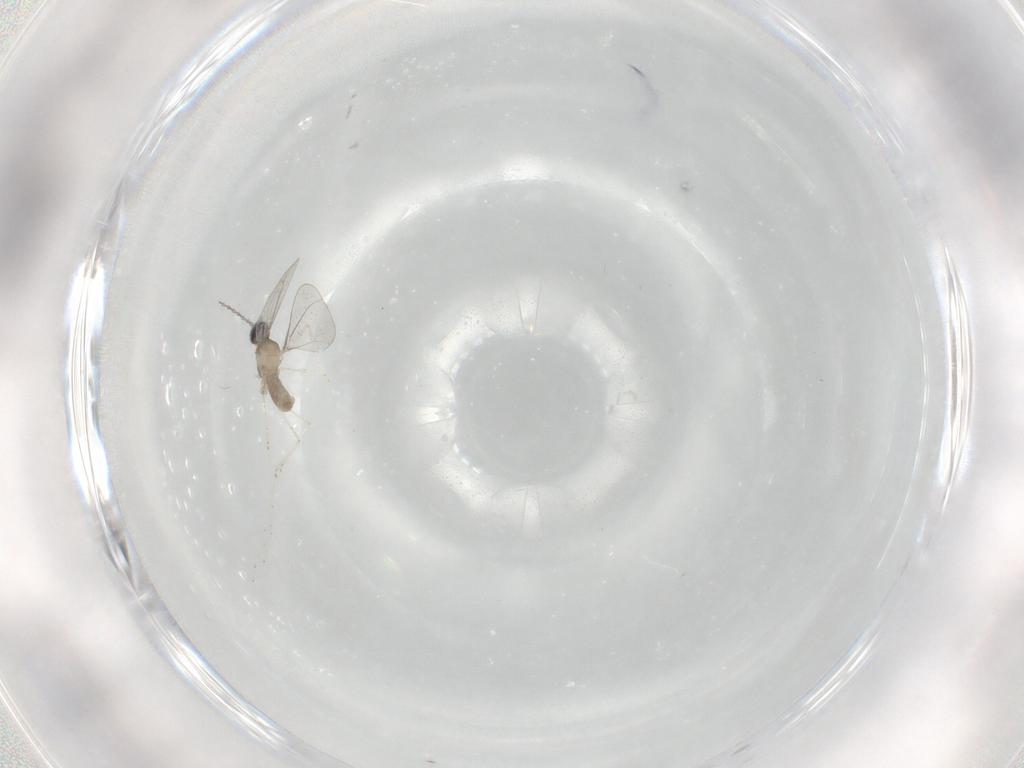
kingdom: Animalia
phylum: Arthropoda
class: Insecta
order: Diptera
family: Cecidomyiidae
